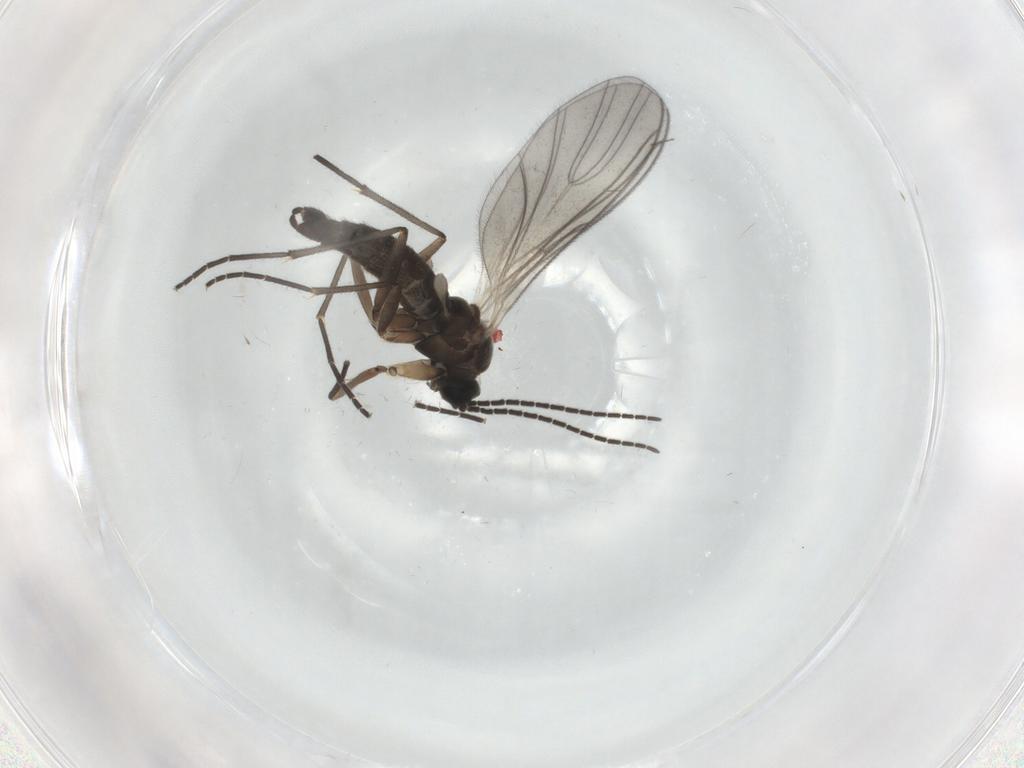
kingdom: Animalia
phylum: Arthropoda
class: Insecta
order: Diptera
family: Sciaridae
